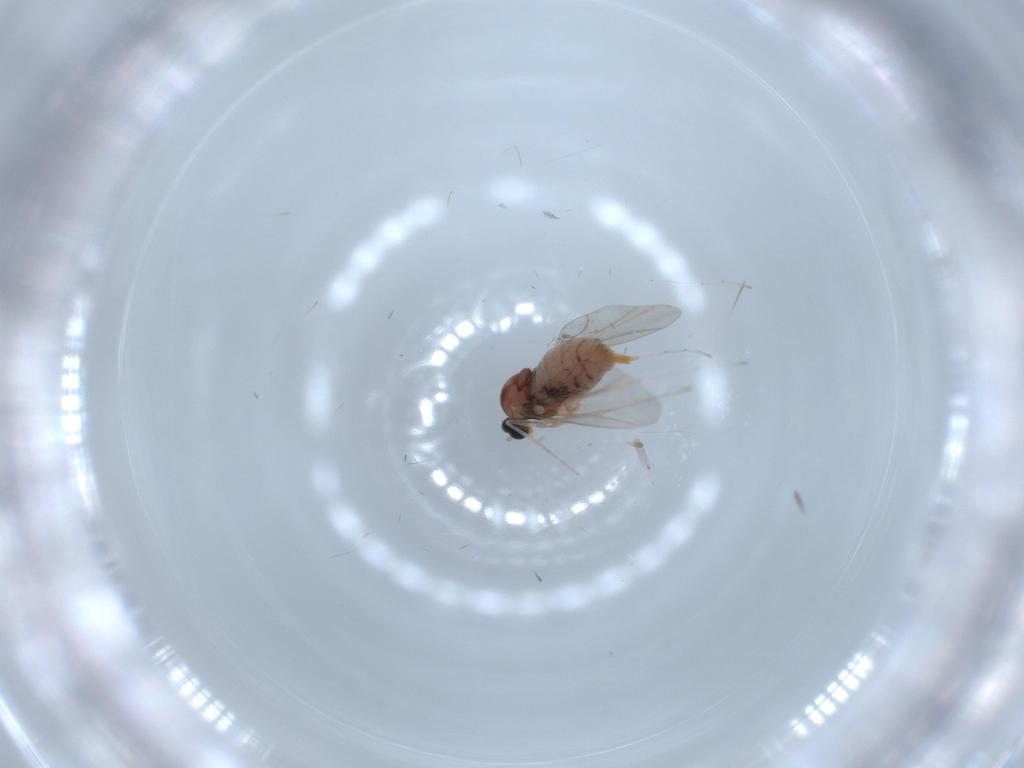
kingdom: Animalia
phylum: Arthropoda
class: Insecta
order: Diptera
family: Cecidomyiidae
